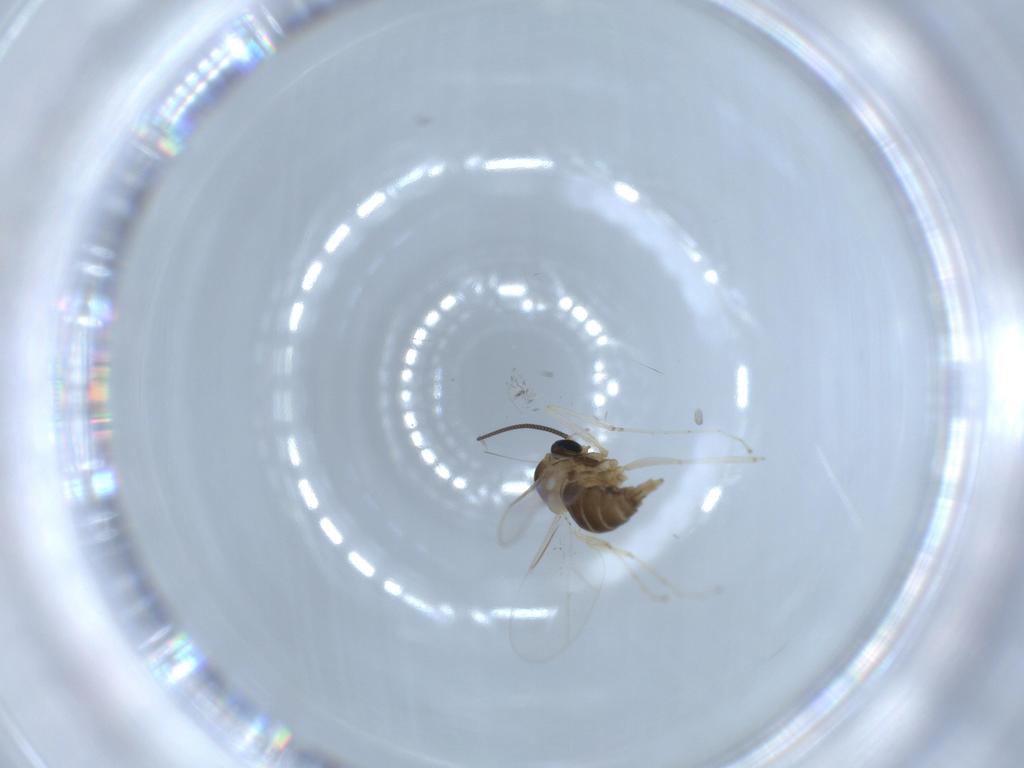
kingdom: Animalia
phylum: Arthropoda
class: Insecta
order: Diptera
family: Cecidomyiidae
